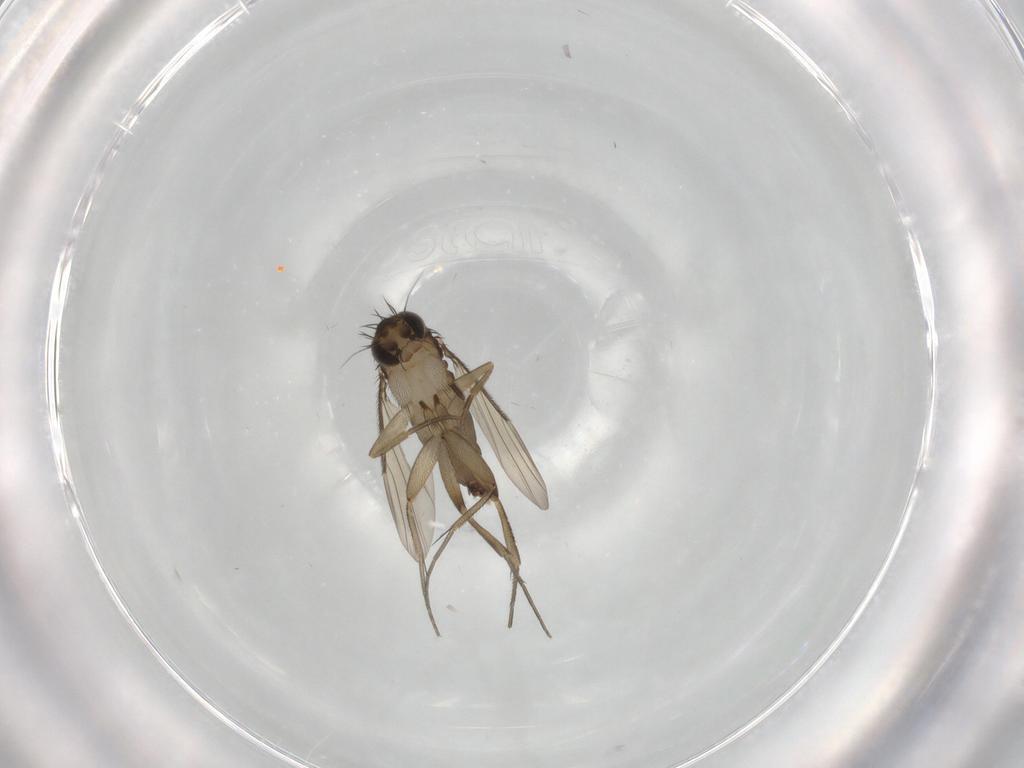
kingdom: Animalia
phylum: Arthropoda
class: Insecta
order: Diptera
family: Phoridae
